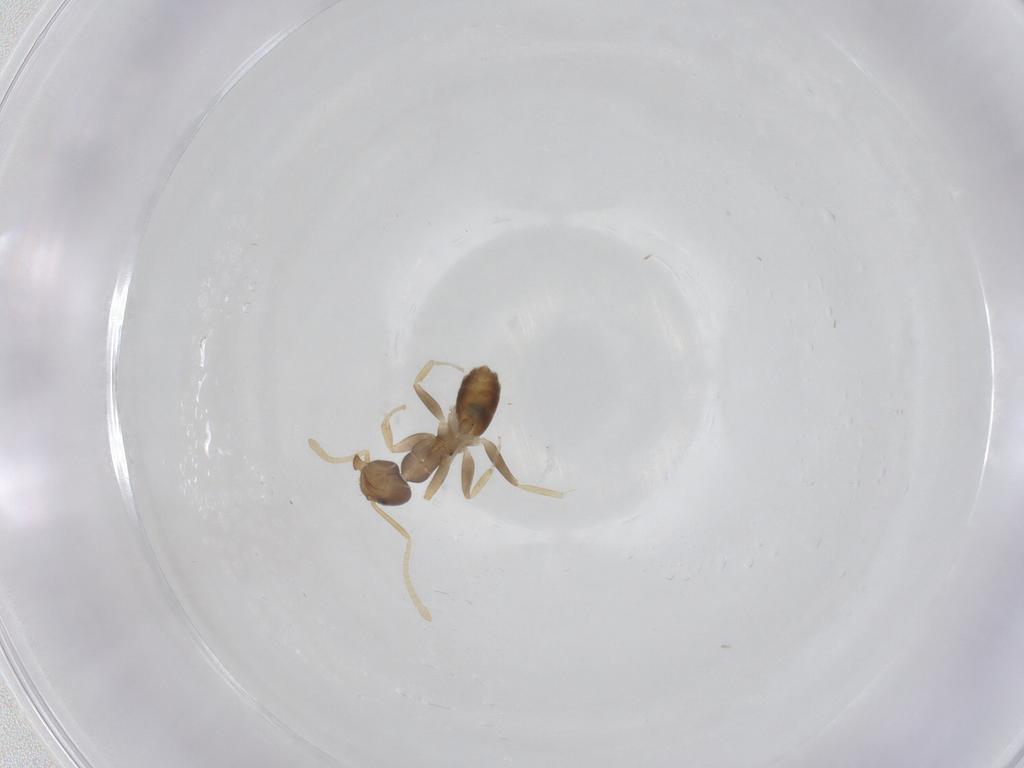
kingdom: Animalia
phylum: Arthropoda
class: Insecta
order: Hymenoptera
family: Formicidae
